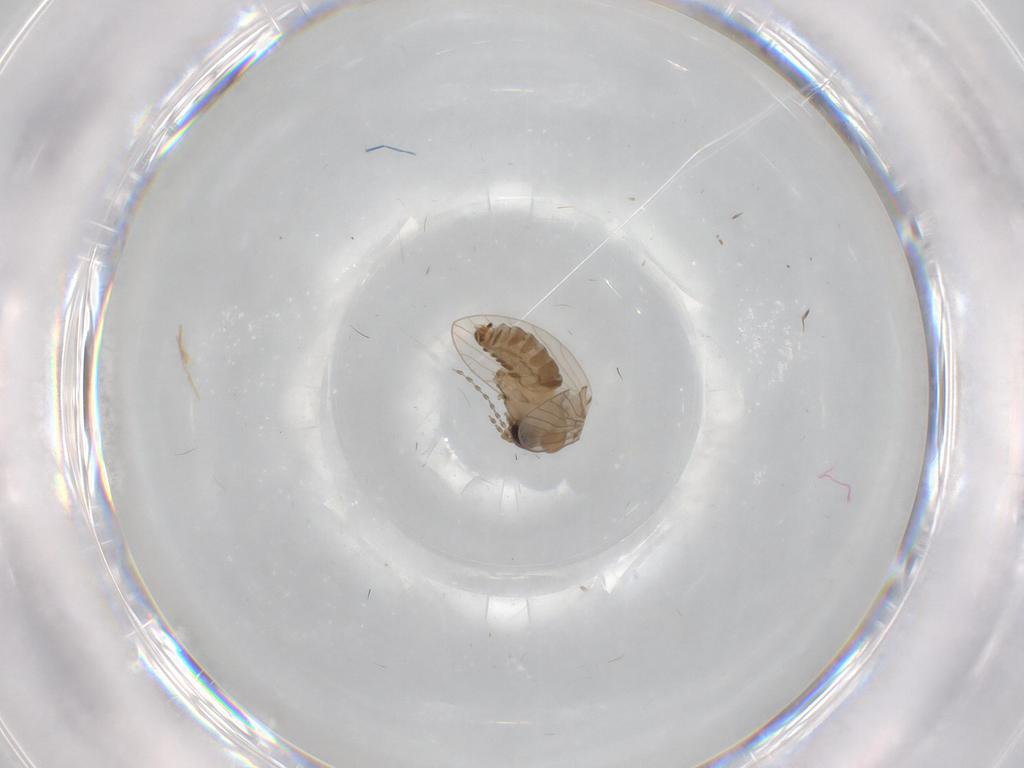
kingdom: Animalia
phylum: Arthropoda
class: Insecta
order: Diptera
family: Psychodidae
